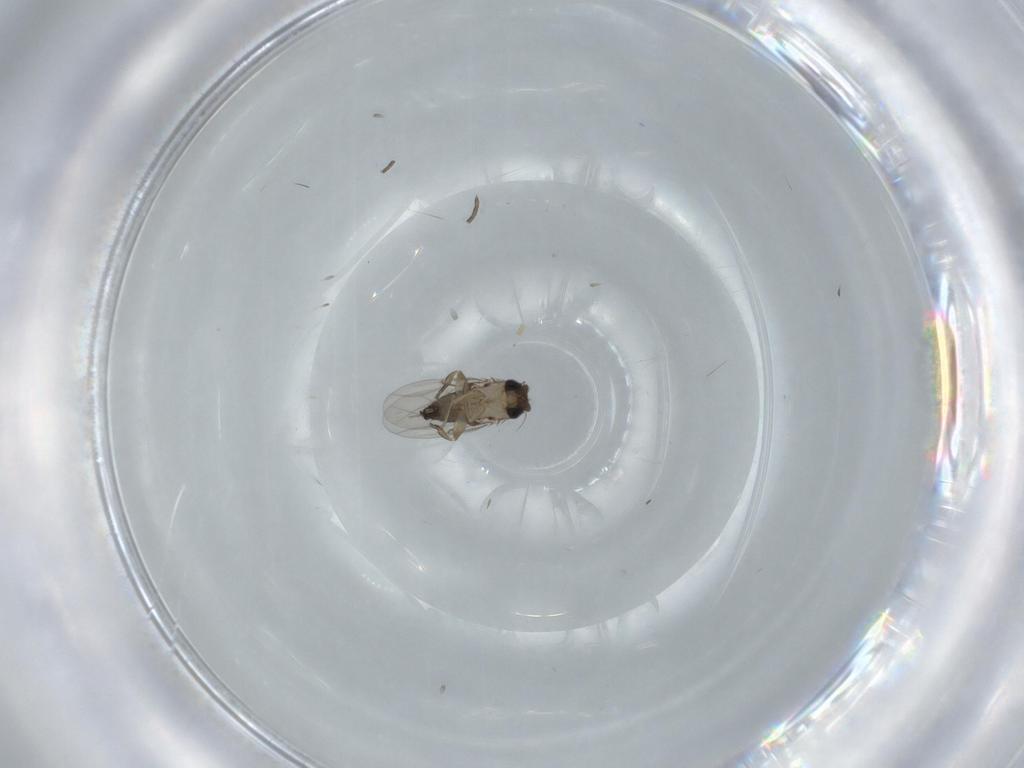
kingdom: Animalia
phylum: Arthropoda
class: Insecta
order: Diptera
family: Phoridae
